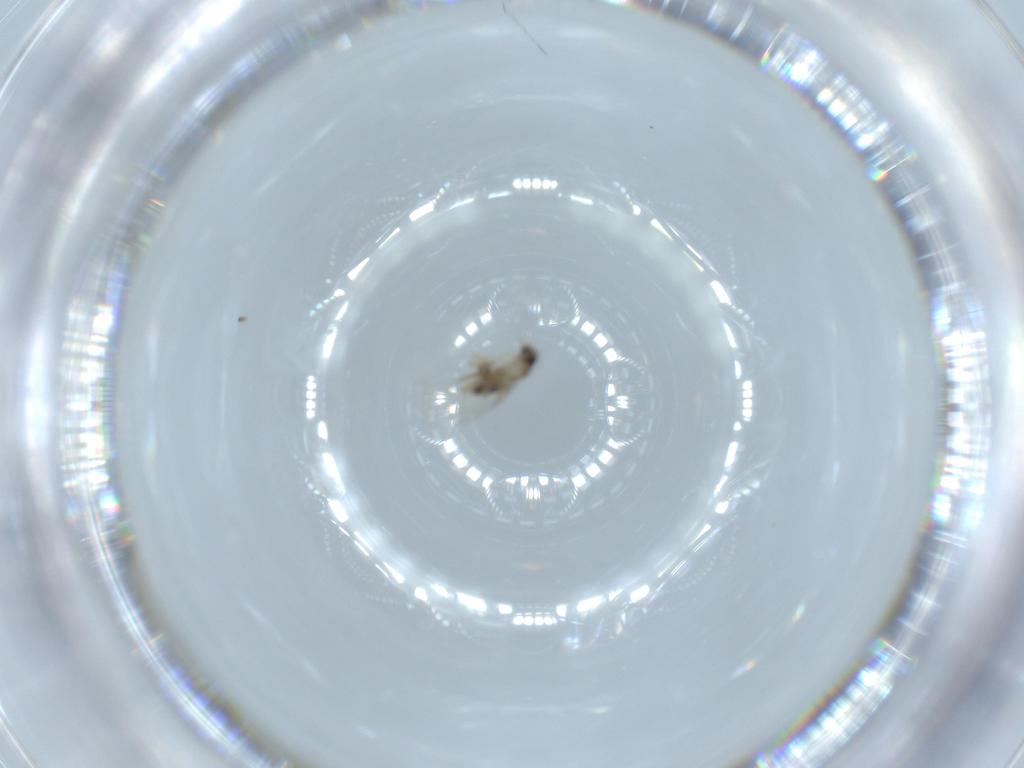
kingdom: Animalia
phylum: Arthropoda
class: Insecta
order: Diptera
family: Phoridae
